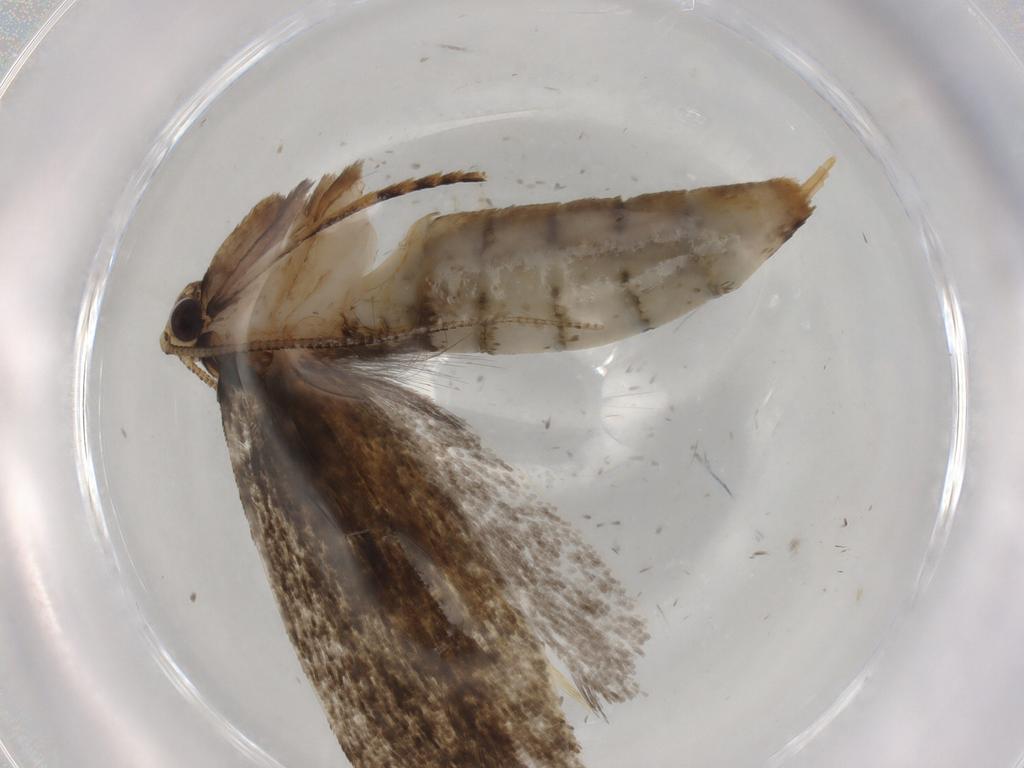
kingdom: Animalia
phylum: Arthropoda
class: Insecta
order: Lepidoptera
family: Tineidae
